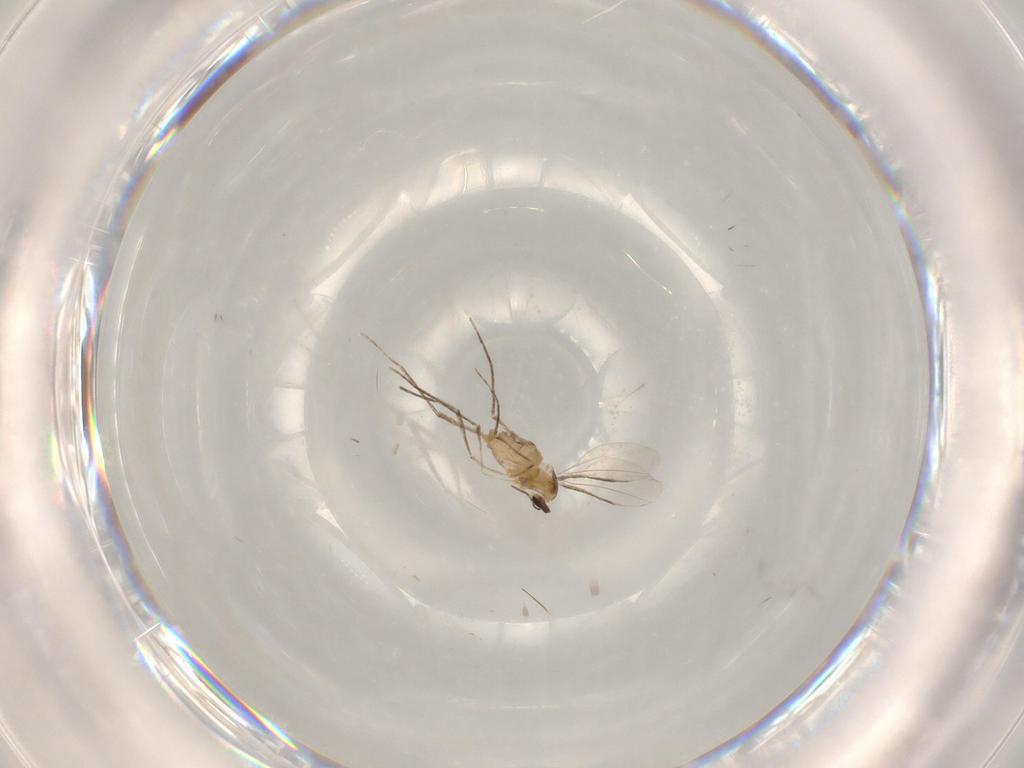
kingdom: Animalia
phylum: Arthropoda
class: Insecta
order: Diptera
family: Cecidomyiidae
